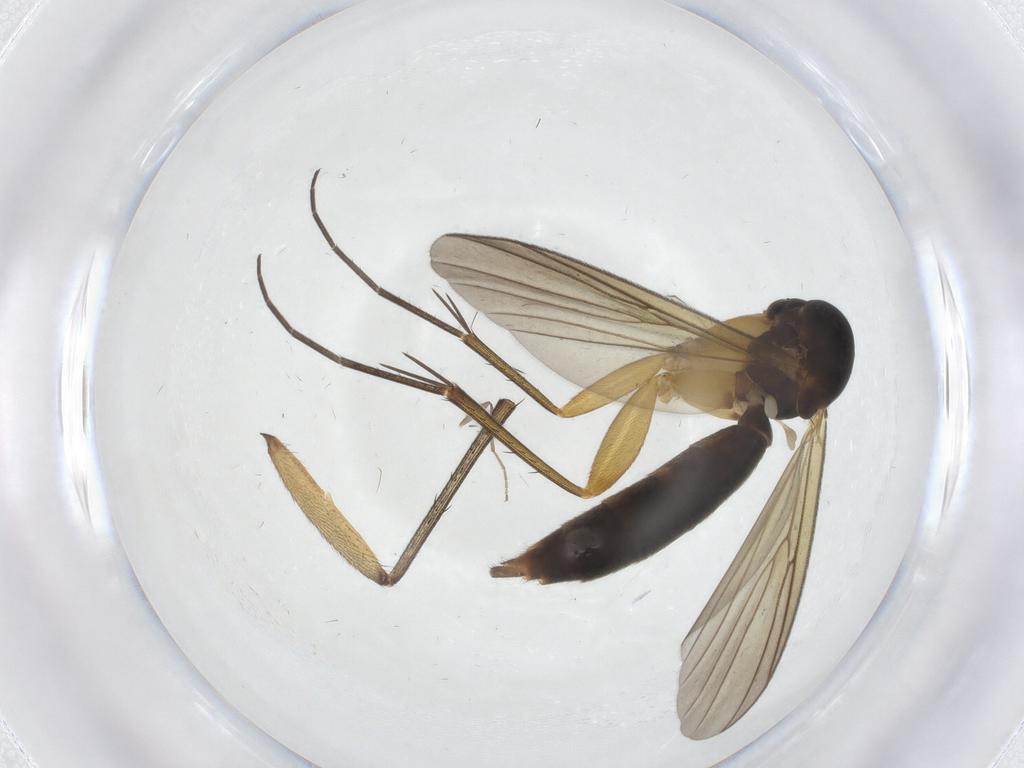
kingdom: Animalia
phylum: Arthropoda
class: Insecta
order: Diptera
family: Mycetophilidae
